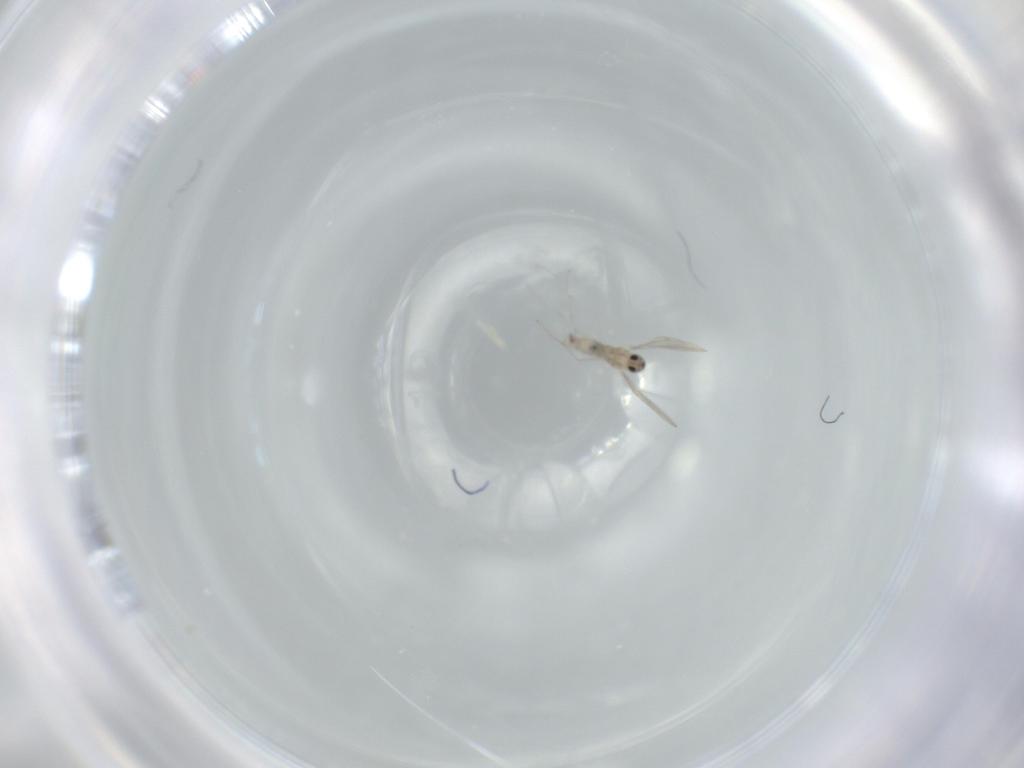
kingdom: Animalia
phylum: Arthropoda
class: Insecta
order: Diptera
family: Cecidomyiidae
